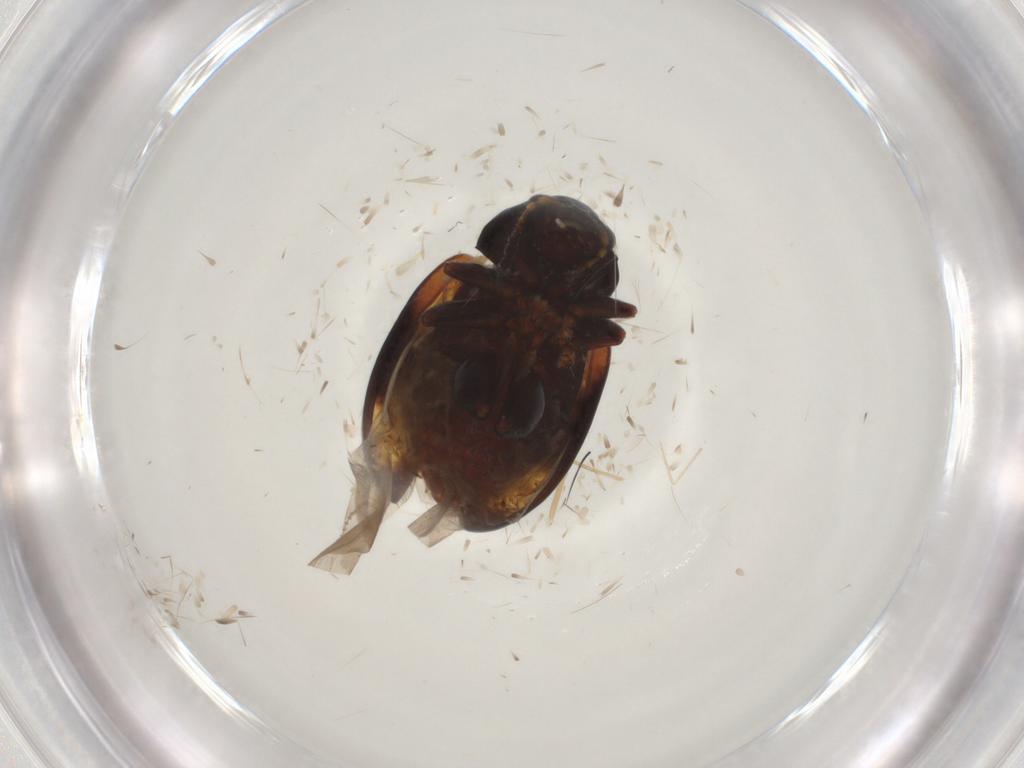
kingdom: Animalia
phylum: Arthropoda
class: Insecta
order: Coleoptera
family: Chrysomelidae
